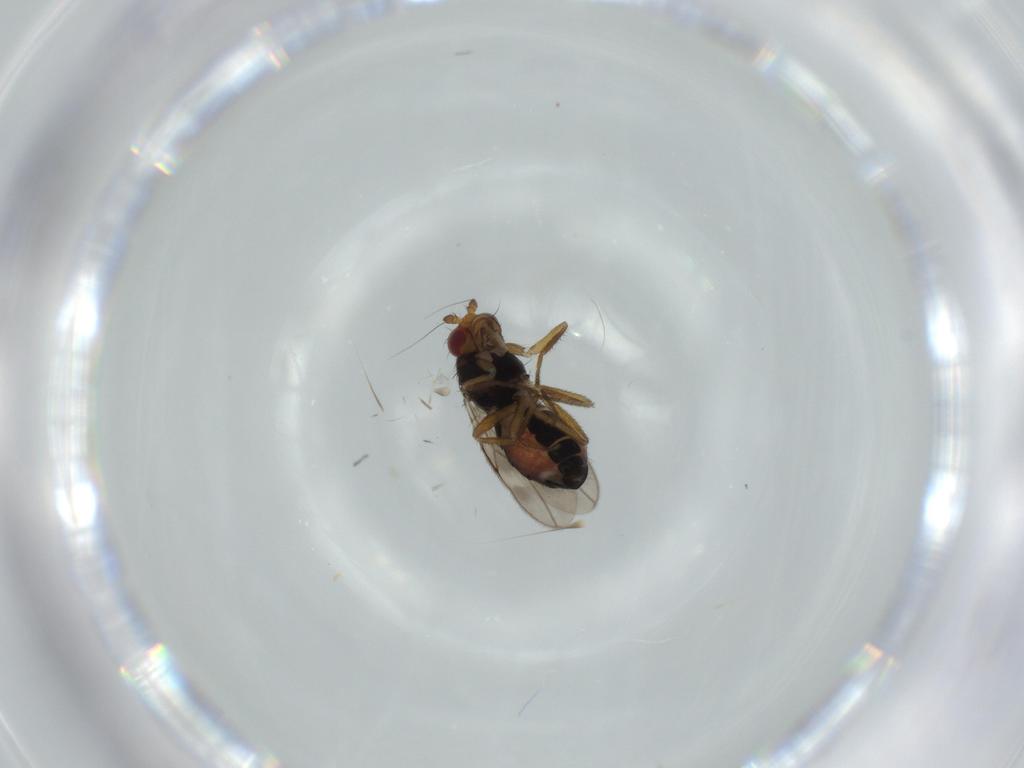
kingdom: Animalia
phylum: Arthropoda
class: Insecta
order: Diptera
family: Sphaeroceridae
